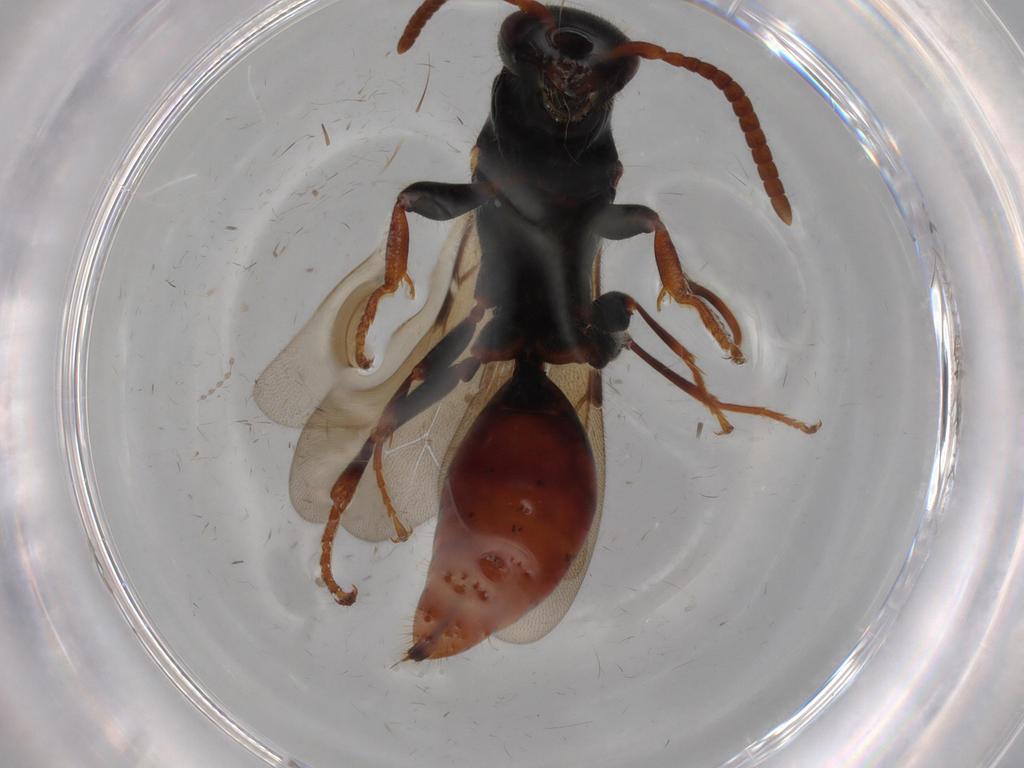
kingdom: Animalia
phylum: Arthropoda
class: Insecta
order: Hymenoptera
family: Bethylidae
